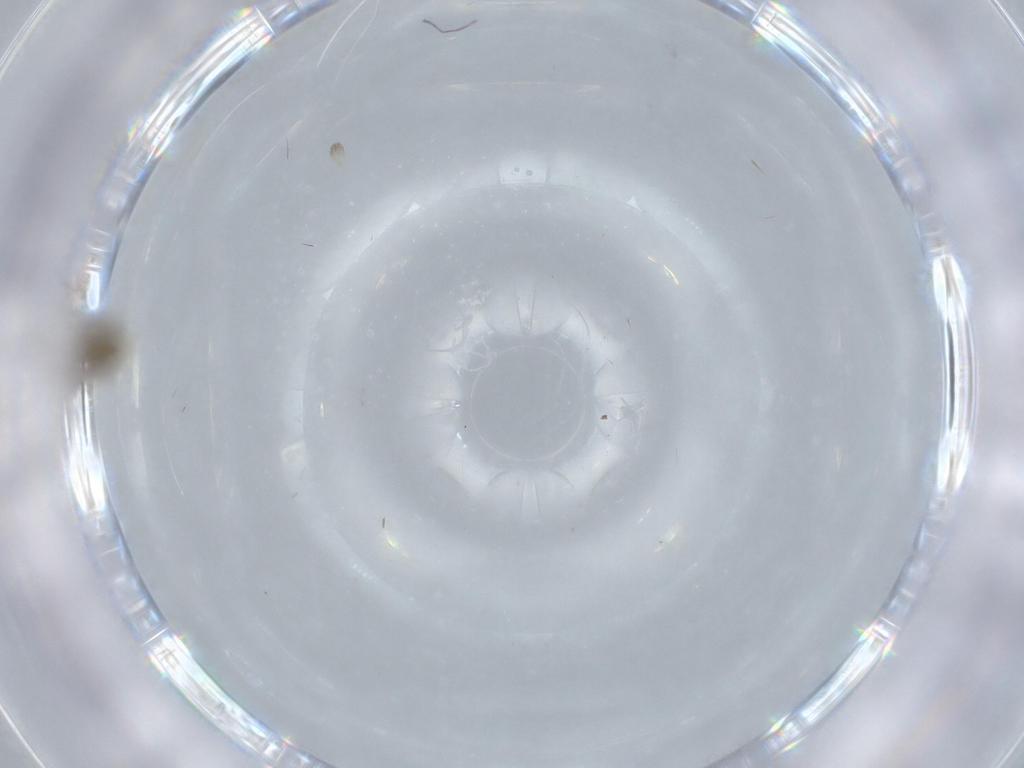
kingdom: Animalia
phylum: Arthropoda
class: Insecta
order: Diptera
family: Cecidomyiidae
